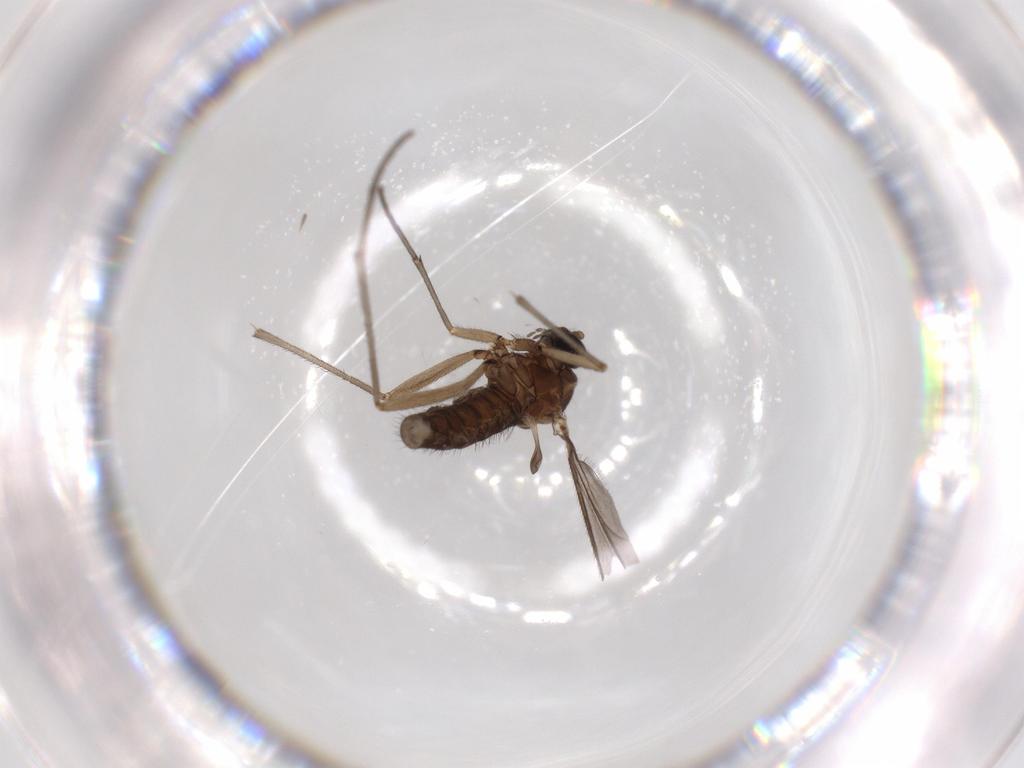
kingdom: Animalia
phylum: Arthropoda
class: Insecta
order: Diptera
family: Sciaridae
